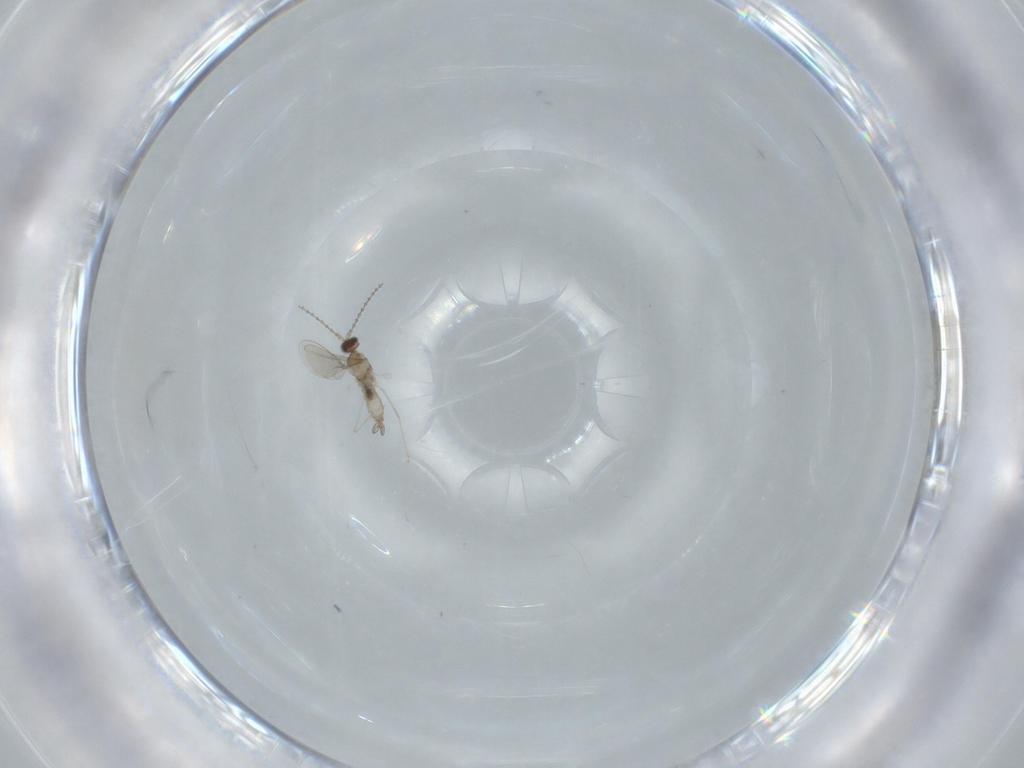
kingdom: Animalia
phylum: Arthropoda
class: Insecta
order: Diptera
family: Cecidomyiidae
